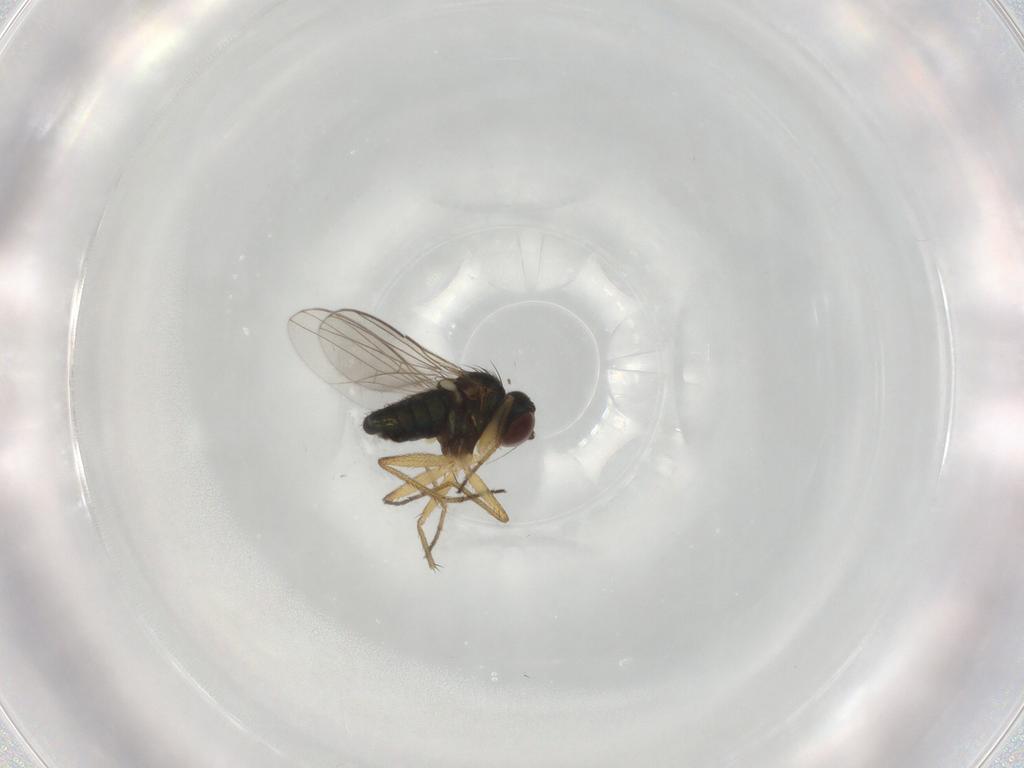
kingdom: Animalia
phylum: Arthropoda
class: Insecta
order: Diptera
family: Dolichopodidae
